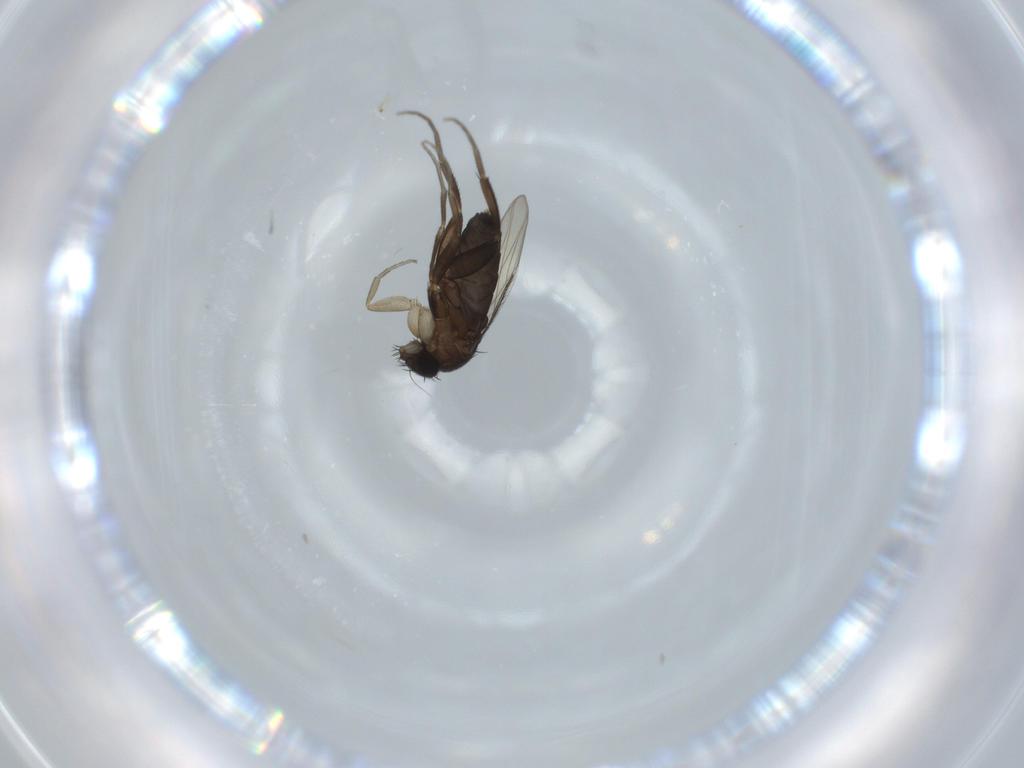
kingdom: Animalia
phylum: Arthropoda
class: Insecta
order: Diptera
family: Phoridae
